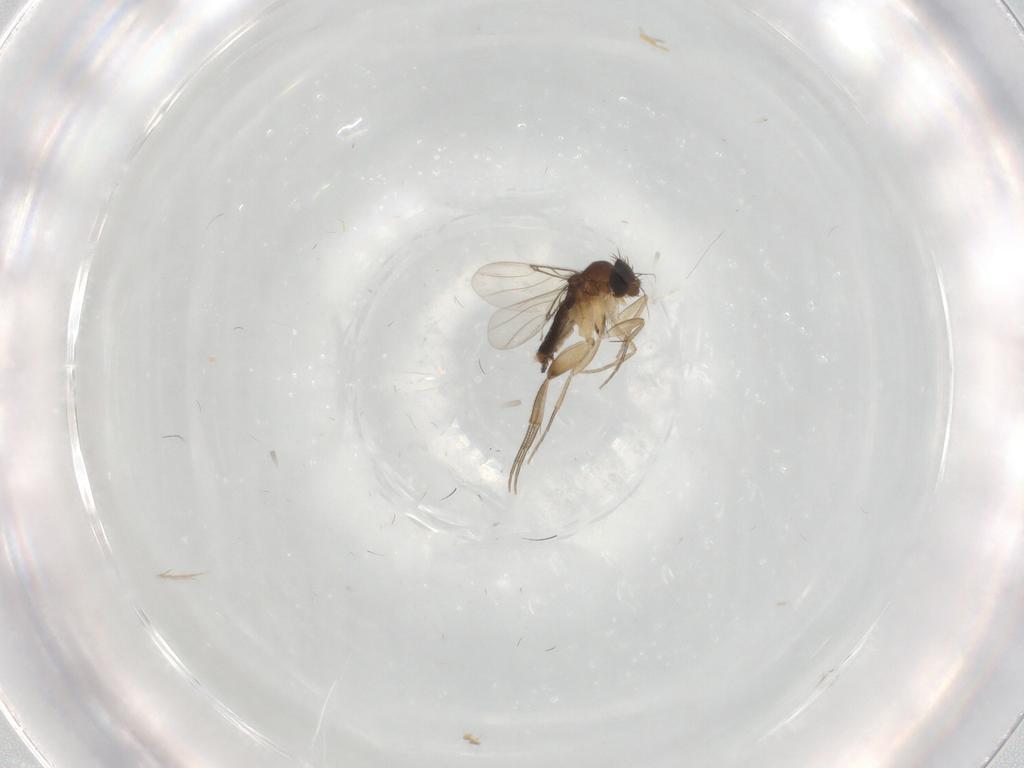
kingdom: Animalia
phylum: Arthropoda
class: Insecta
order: Diptera
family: Phoridae
